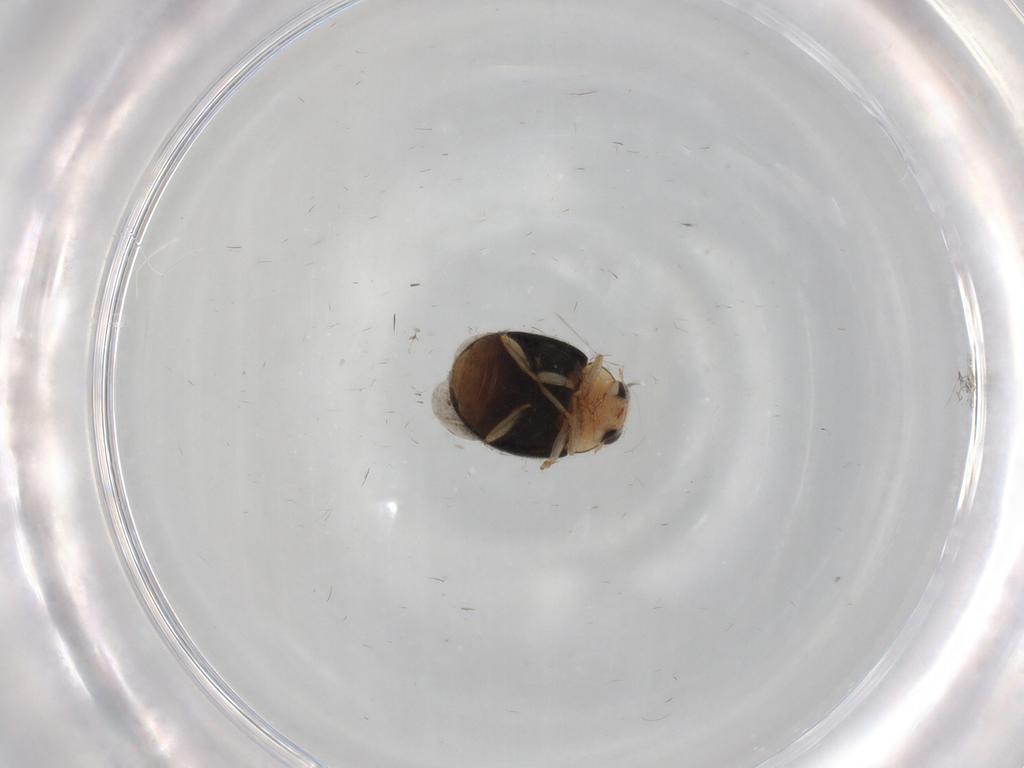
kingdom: Animalia
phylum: Arthropoda
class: Insecta
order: Coleoptera
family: Coccinellidae
